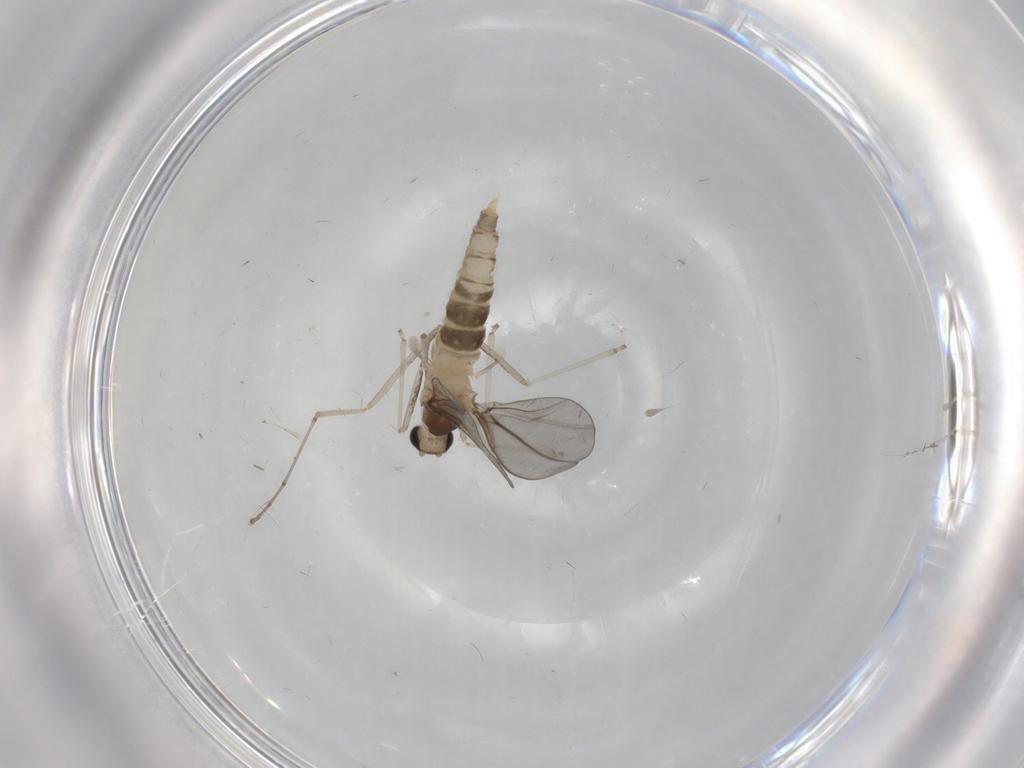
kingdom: Animalia
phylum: Arthropoda
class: Insecta
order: Diptera
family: Cecidomyiidae
